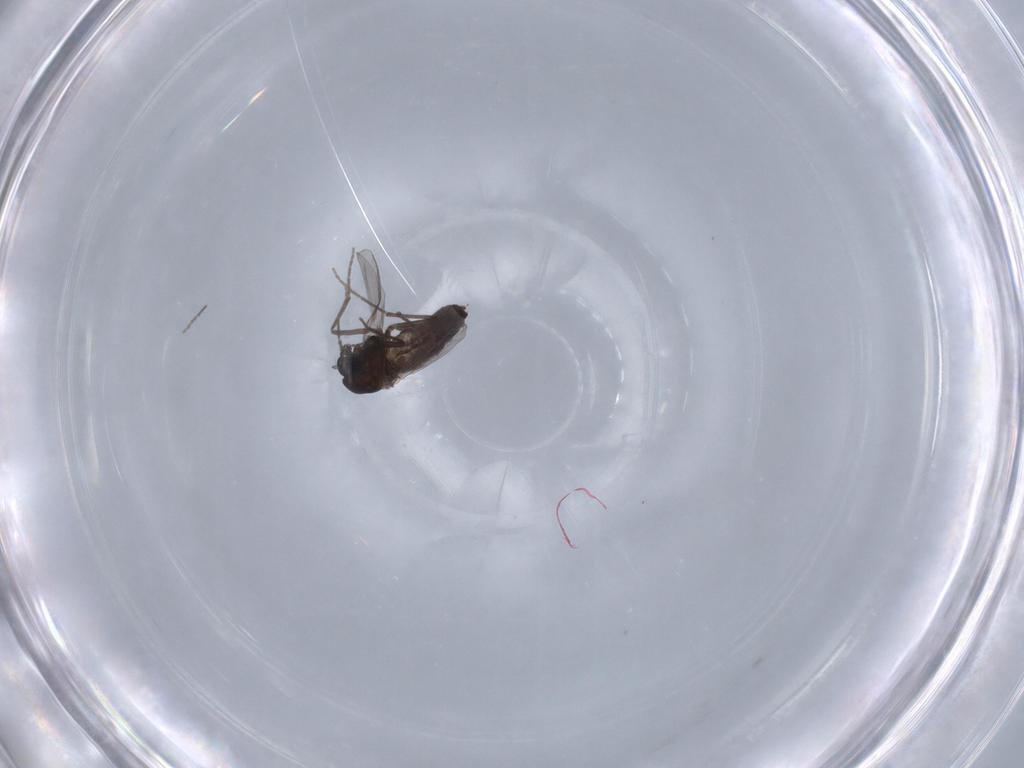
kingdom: Animalia
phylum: Arthropoda
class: Insecta
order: Diptera
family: Chironomidae
